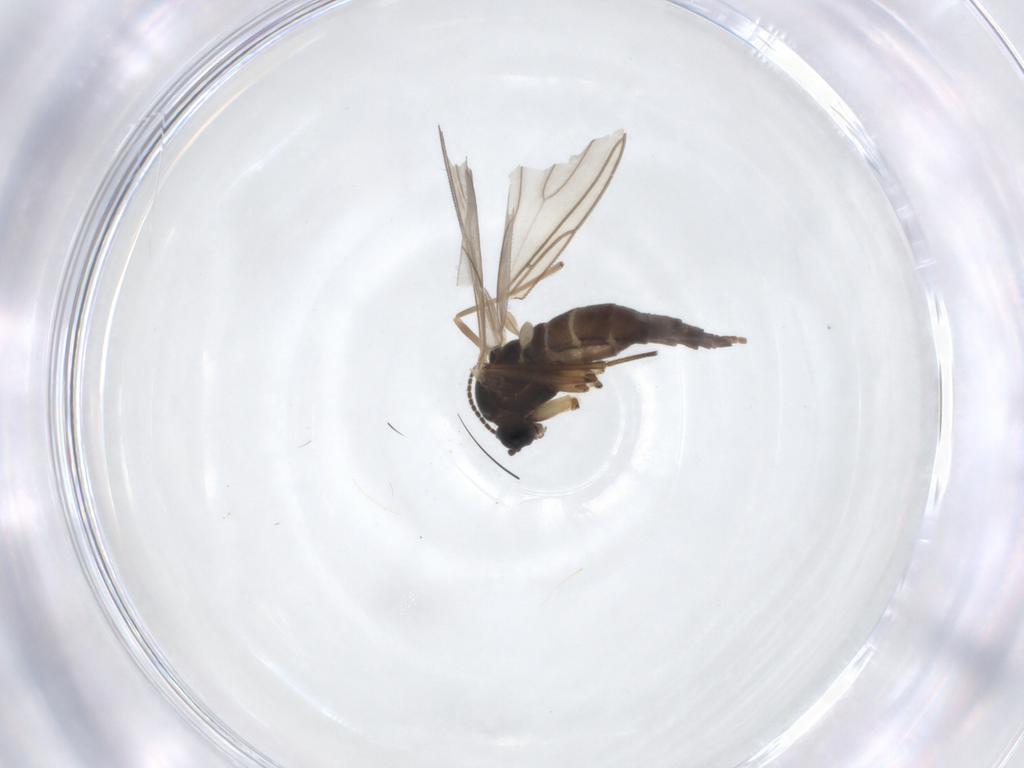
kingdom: Animalia
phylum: Arthropoda
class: Insecta
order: Diptera
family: Sciaridae
